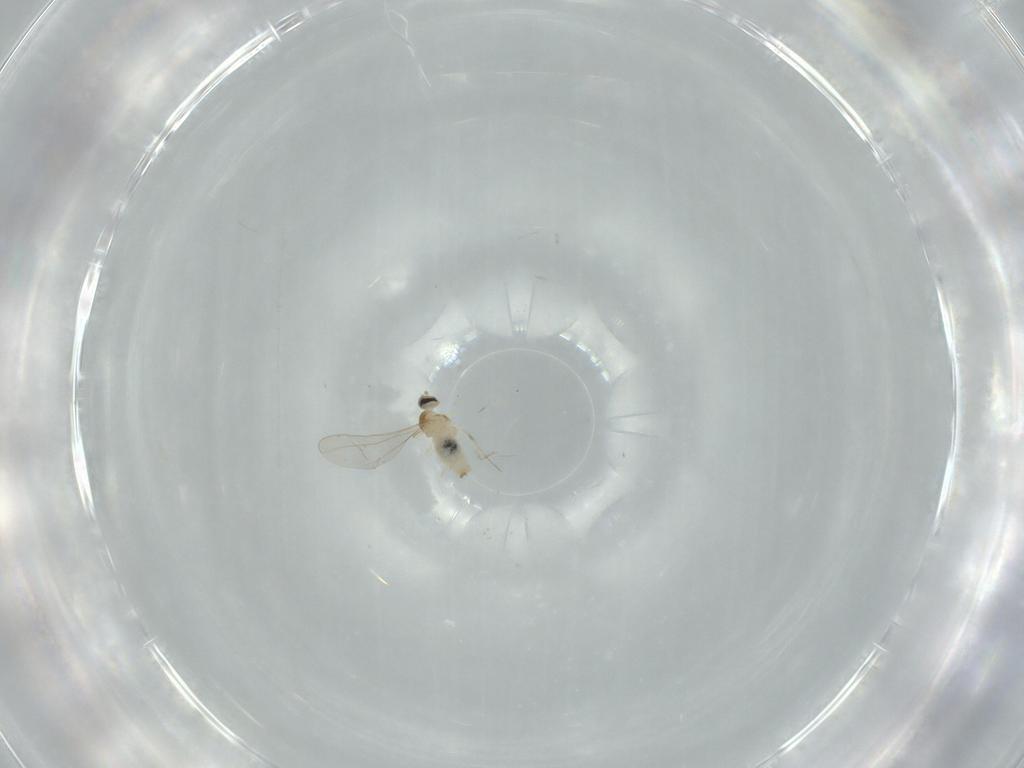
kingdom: Animalia
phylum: Arthropoda
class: Insecta
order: Diptera
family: Cecidomyiidae
